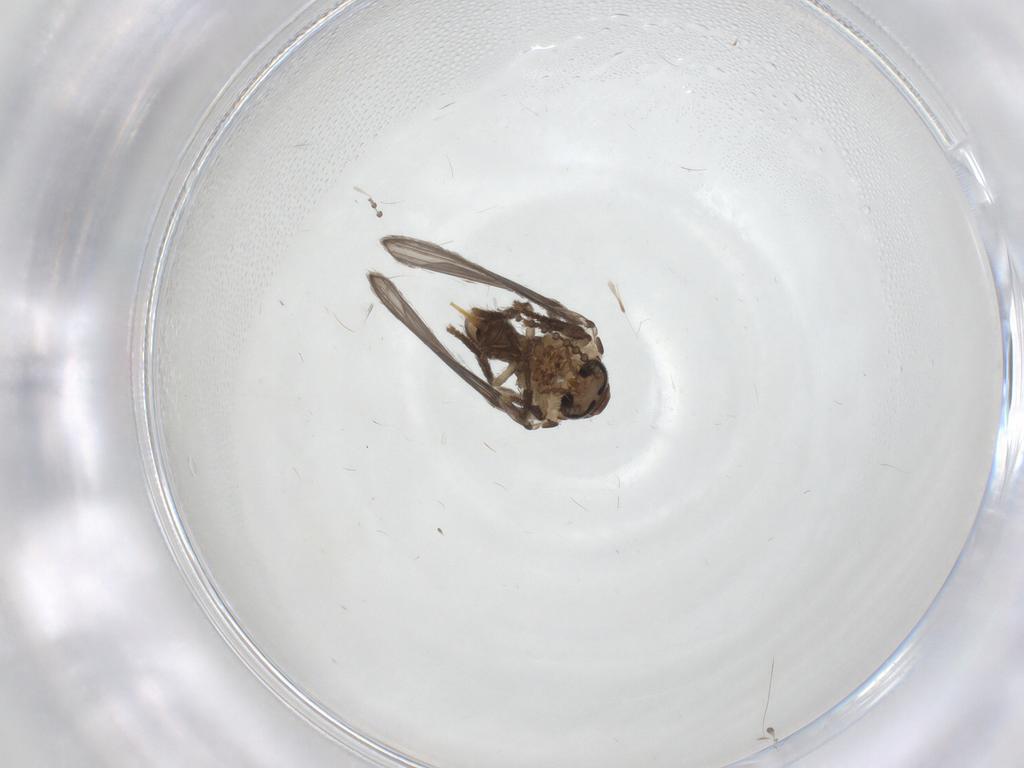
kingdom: Animalia
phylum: Arthropoda
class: Insecta
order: Diptera
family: Psychodidae
